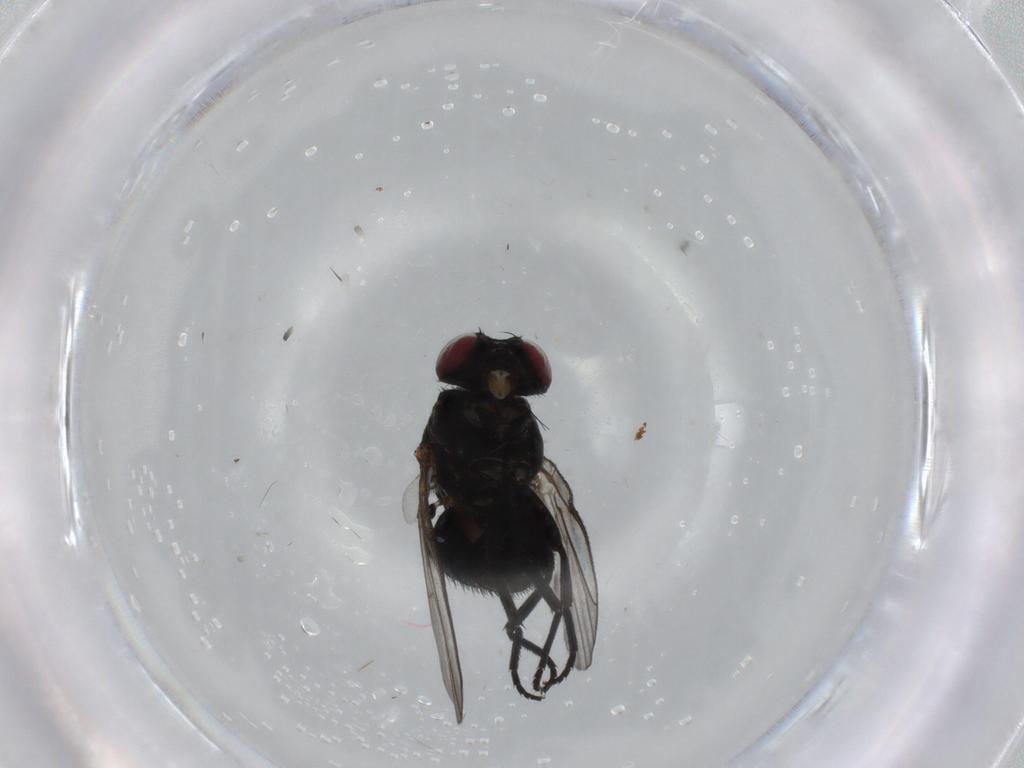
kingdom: Animalia
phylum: Arthropoda
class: Insecta
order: Diptera
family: Agromyzidae
